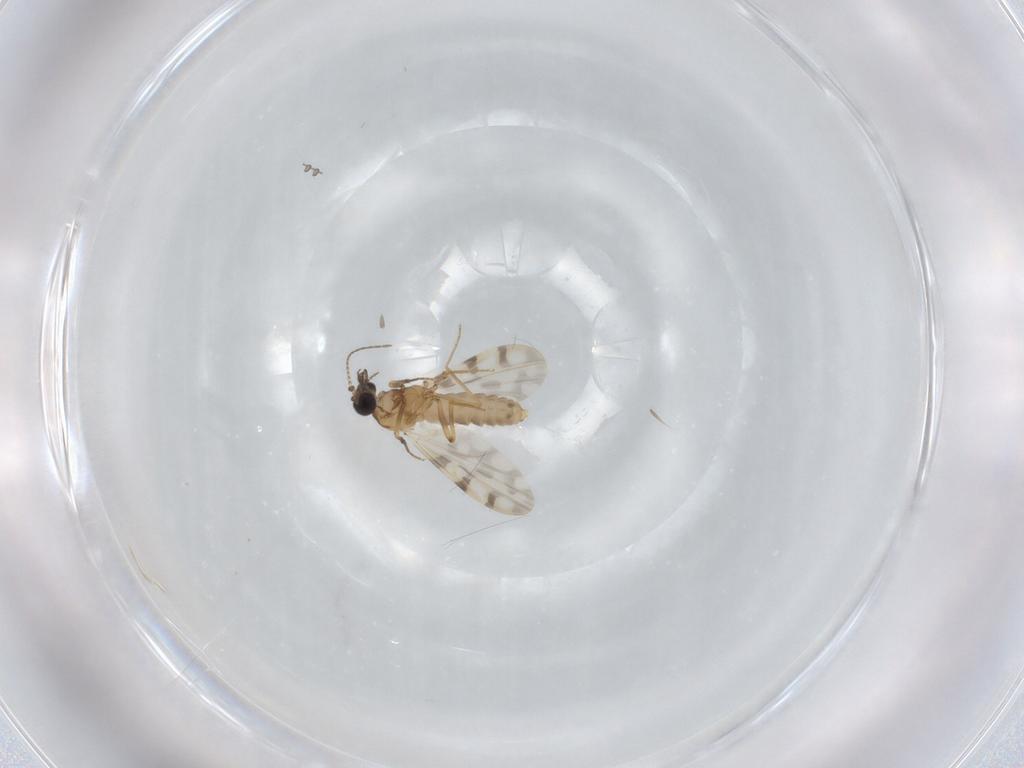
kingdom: Animalia
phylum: Arthropoda
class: Insecta
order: Diptera
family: Ceratopogonidae
